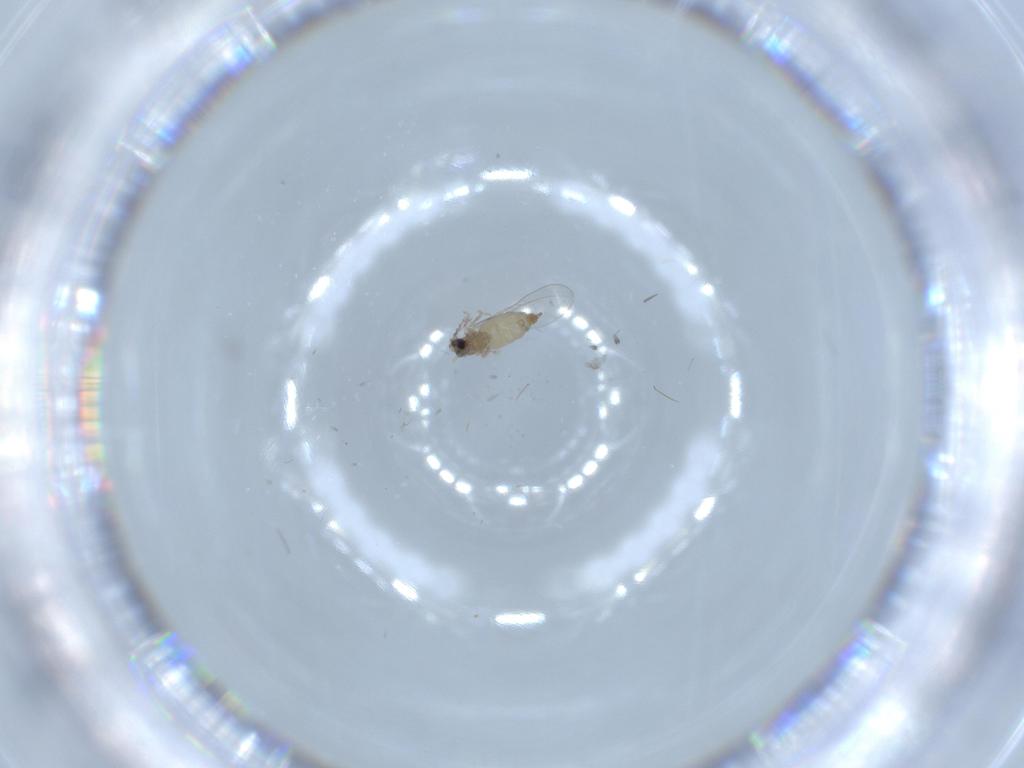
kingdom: Animalia
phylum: Arthropoda
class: Insecta
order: Diptera
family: Cecidomyiidae
